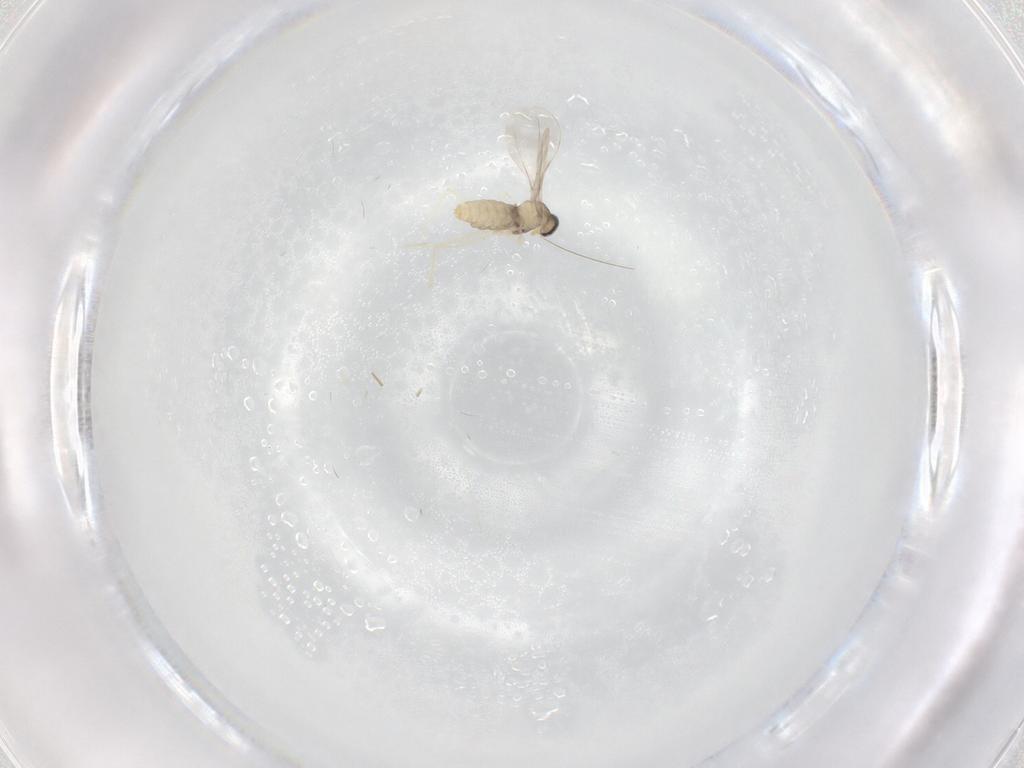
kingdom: Animalia
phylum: Arthropoda
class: Insecta
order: Diptera
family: Cecidomyiidae
